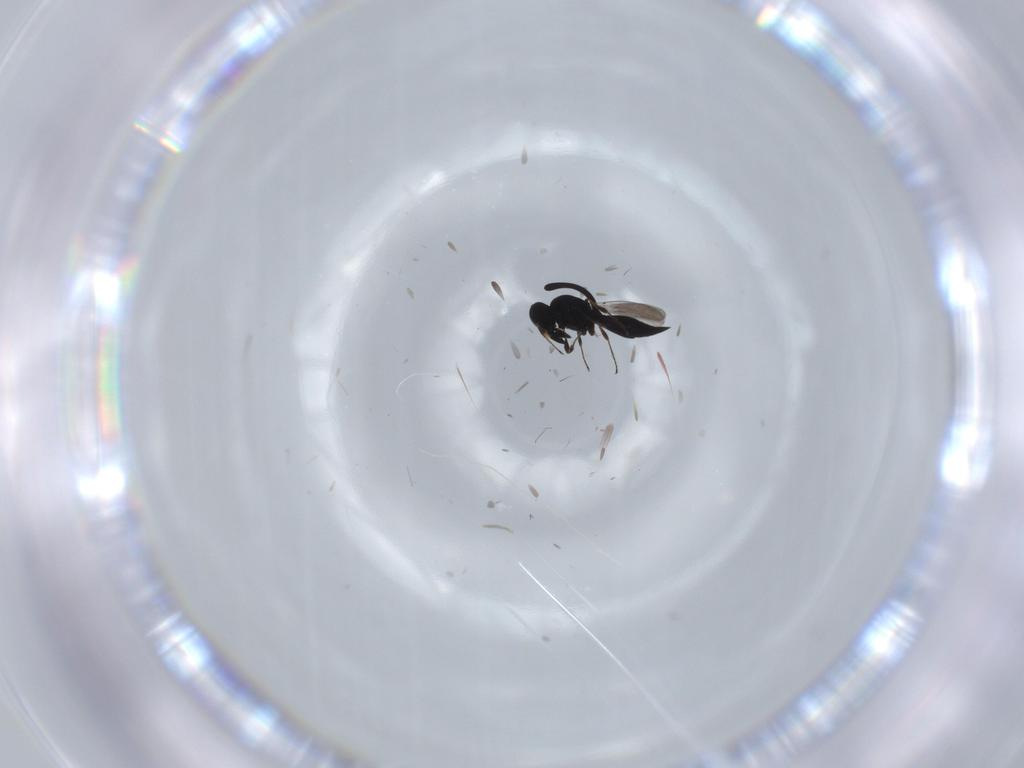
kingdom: Animalia
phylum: Arthropoda
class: Insecta
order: Hymenoptera
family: Platygastridae
